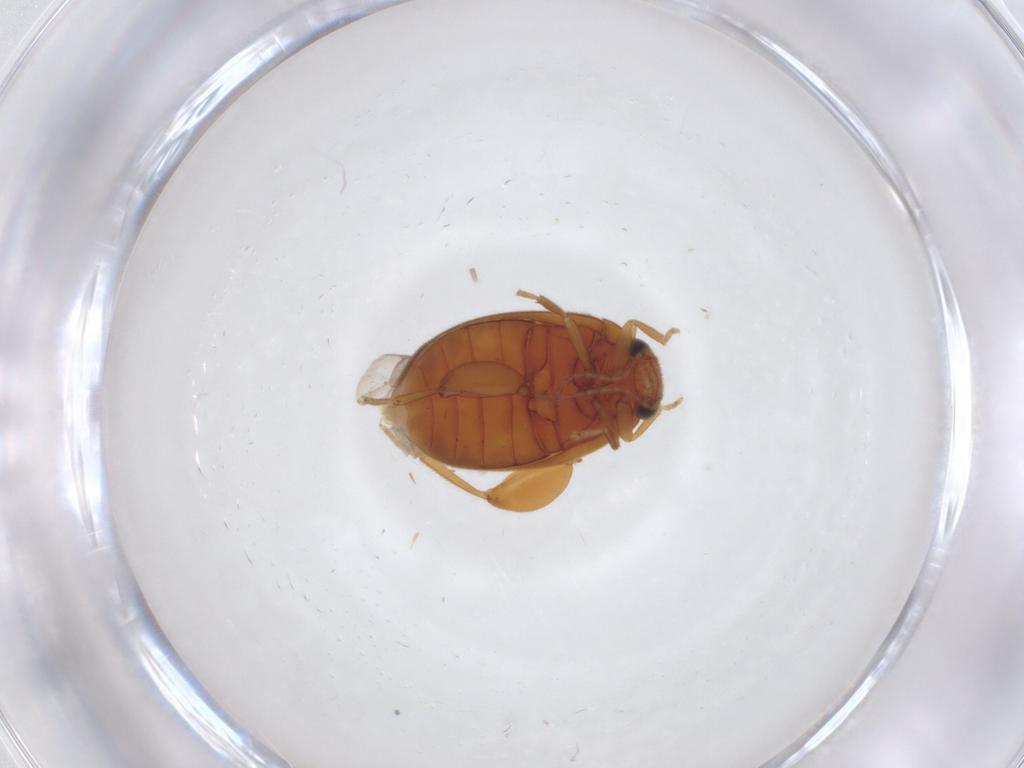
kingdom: Animalia
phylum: Arthropoda
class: Insecta
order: Coleoptera
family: Scirtidae
